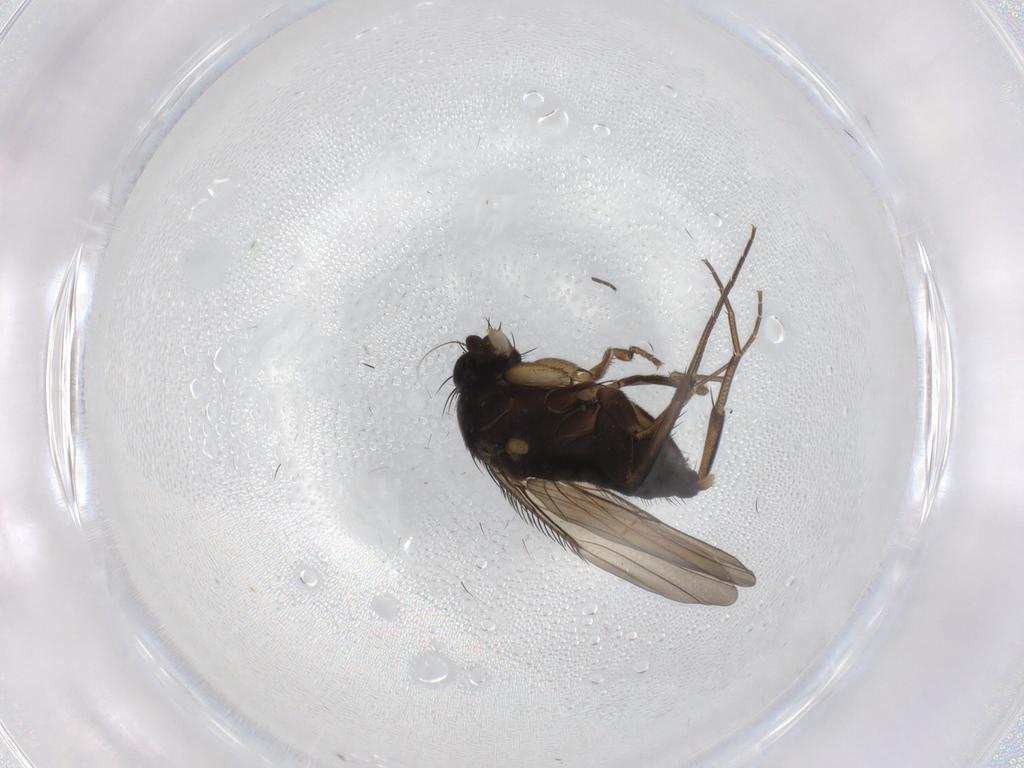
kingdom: Animalia
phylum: Arthropoda
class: Insecta
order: Diptera
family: Phoridae
